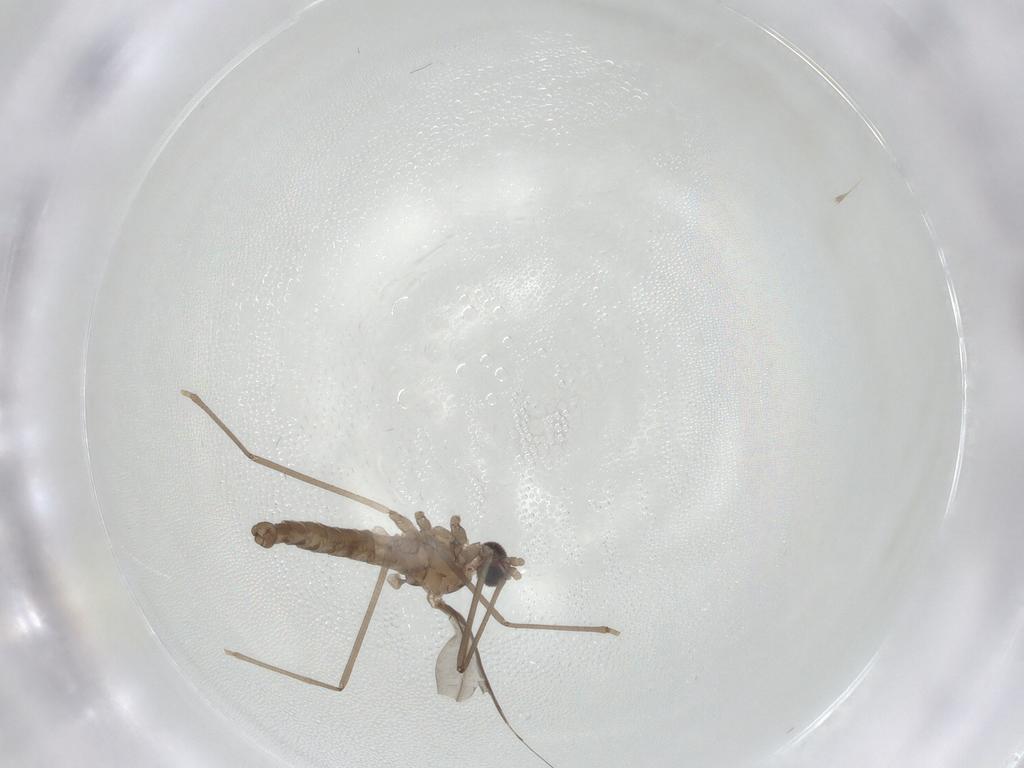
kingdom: Animalia
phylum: Arthropoda
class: Insecta
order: Diptera
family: Cecidomyiidae
